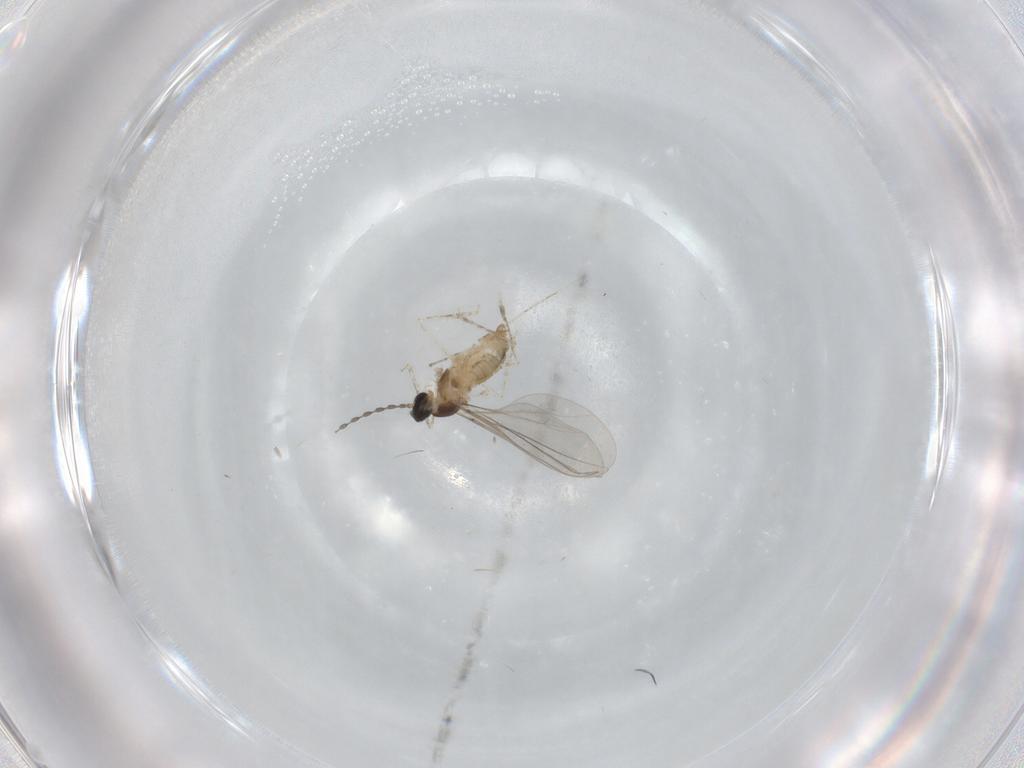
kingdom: Animalia
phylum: Arthropoda
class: Insecta
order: Diptera
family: Cecidomyiidae
